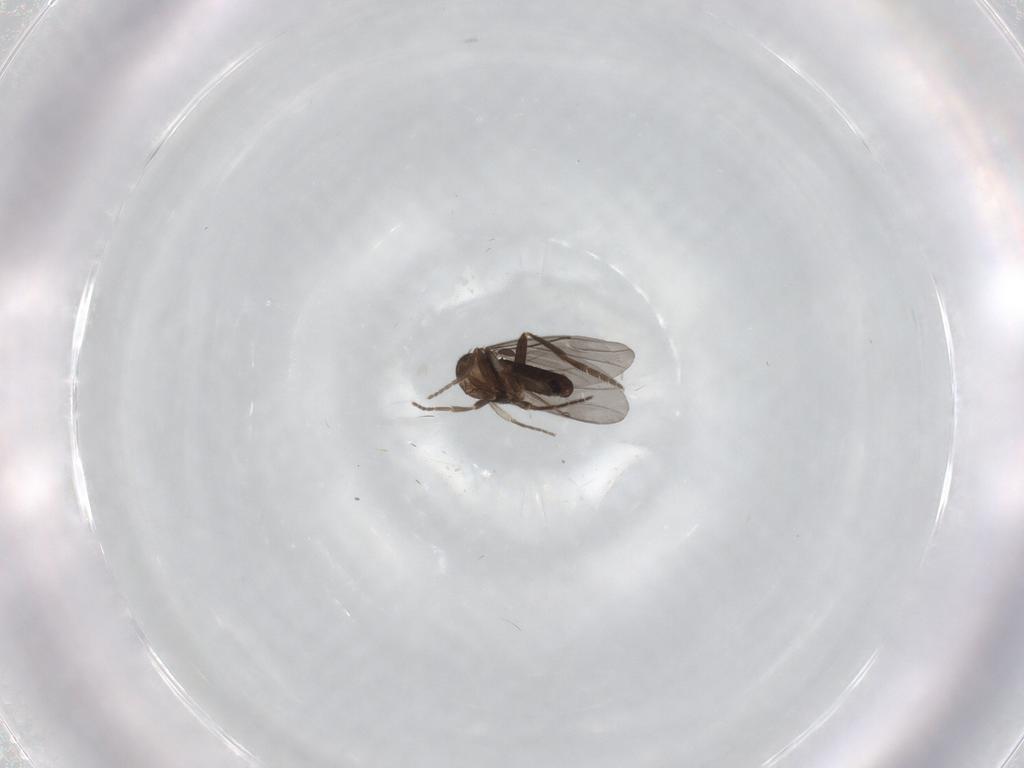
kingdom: Animalia
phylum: Arthropoda
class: Insecta
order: Diptera
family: Phoridae
